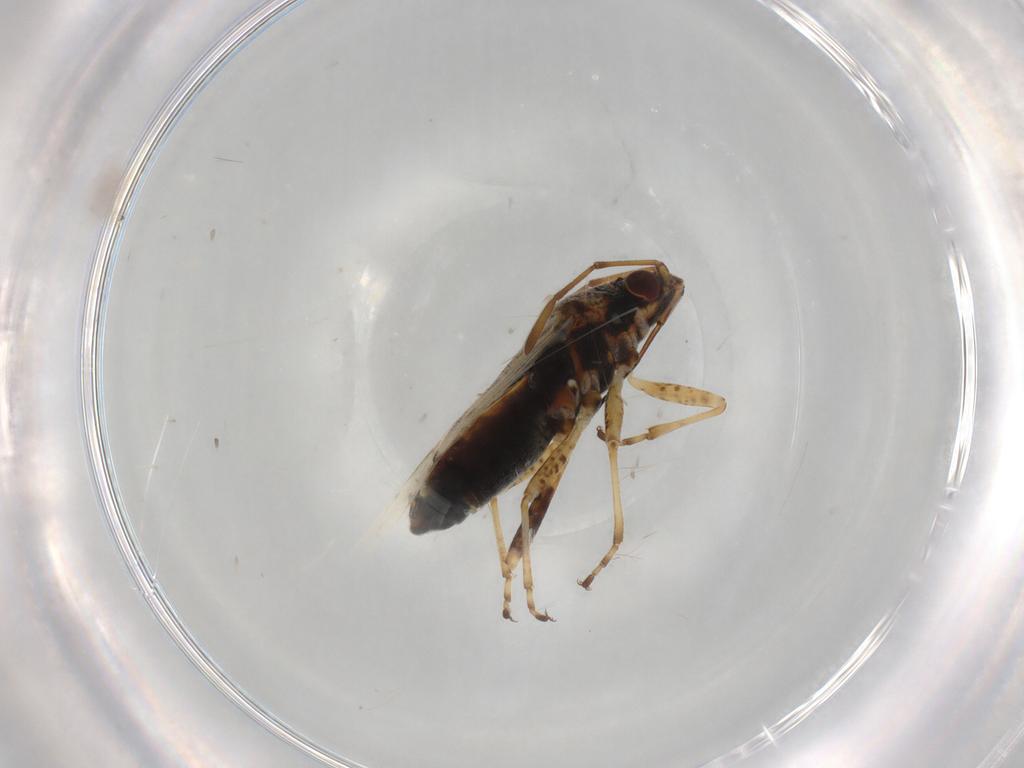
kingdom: Animalia
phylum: Arthropoda
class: Insecta
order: Hemiptera
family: Lygaeidae
